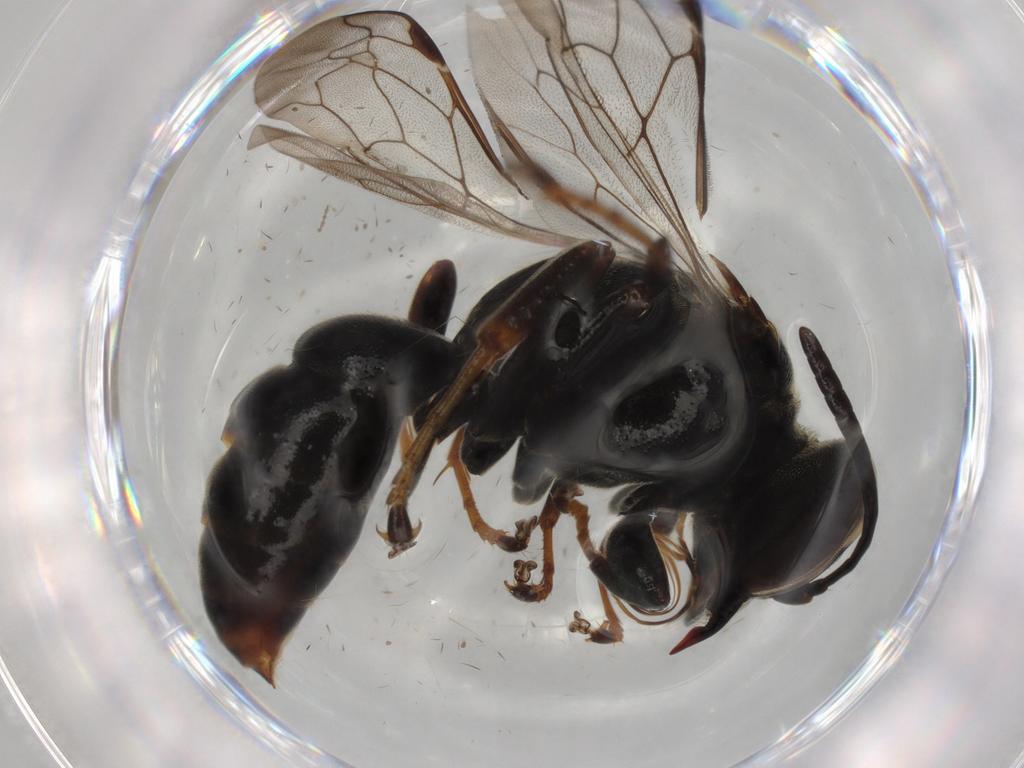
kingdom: Animalia
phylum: Arthropoda
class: Insecta
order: Hymenoptera
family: Crabronidae
